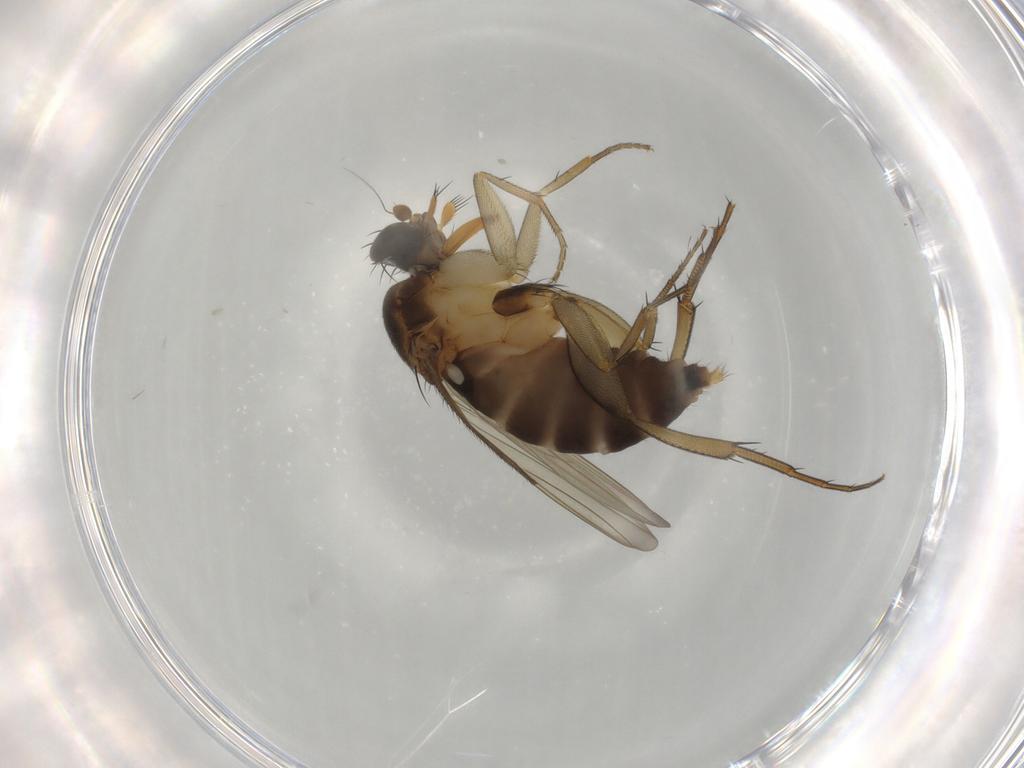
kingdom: Animalia
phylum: Arthropoda
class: Insecta
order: Diptera
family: Phoridae
